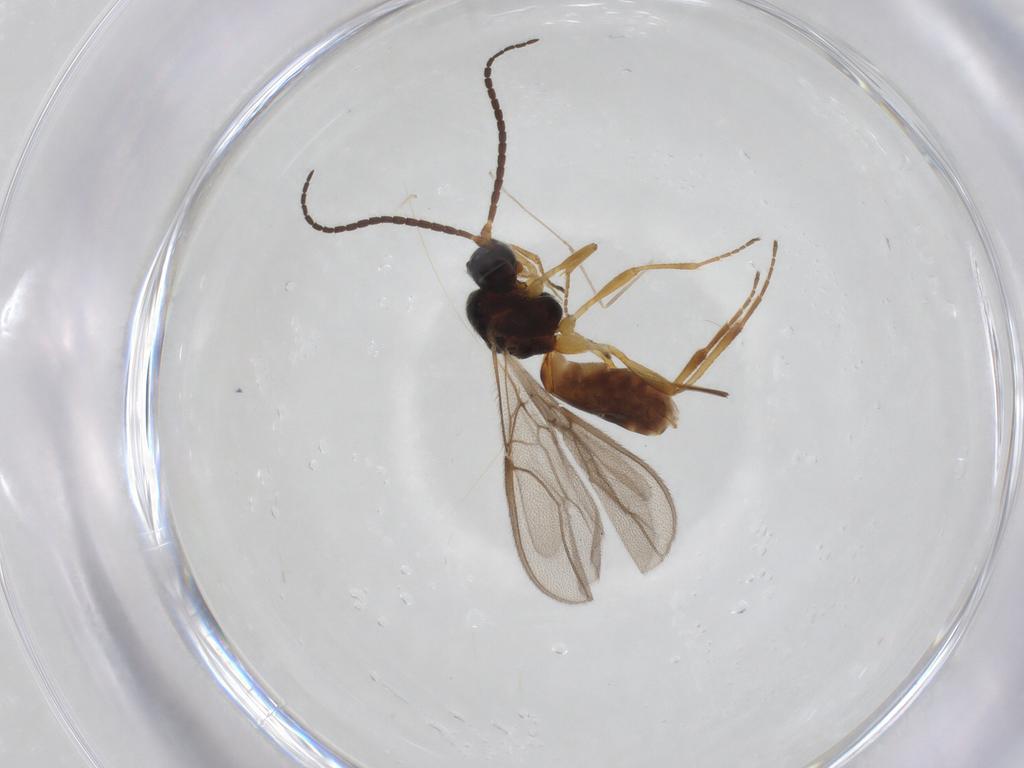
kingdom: Animalia
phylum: Arthropoda
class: Insecta
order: Hymenoptera
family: Braconidae
